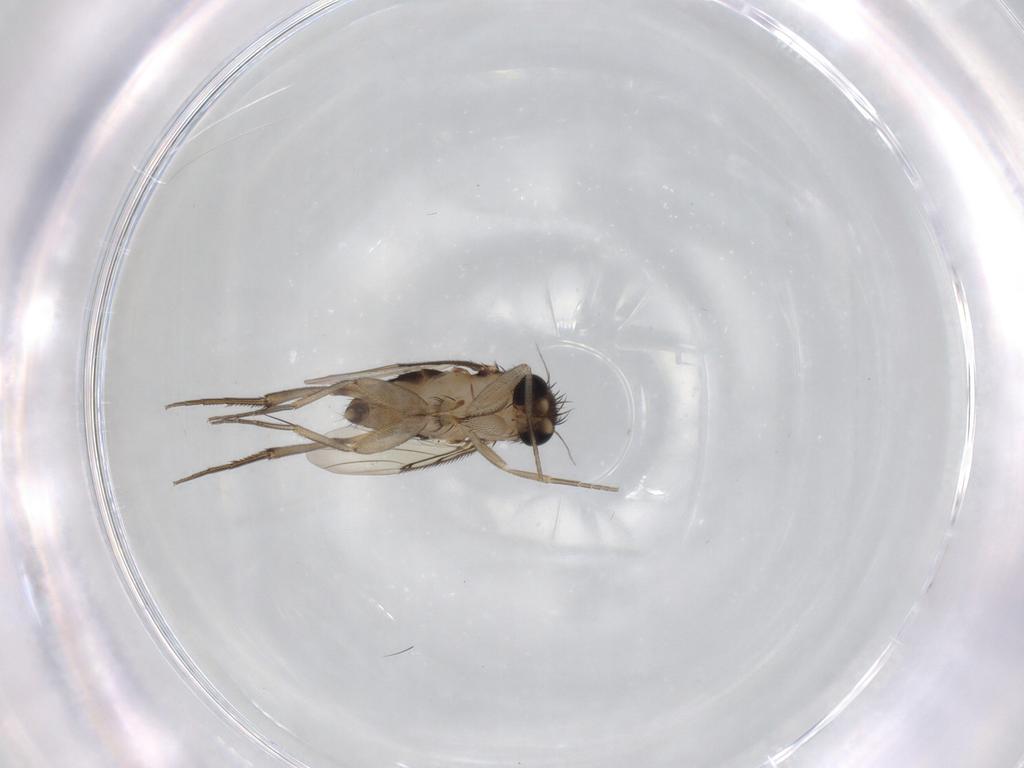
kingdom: Animalia
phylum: Arthropoda
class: Insecta
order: Diptera
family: Phoridae
